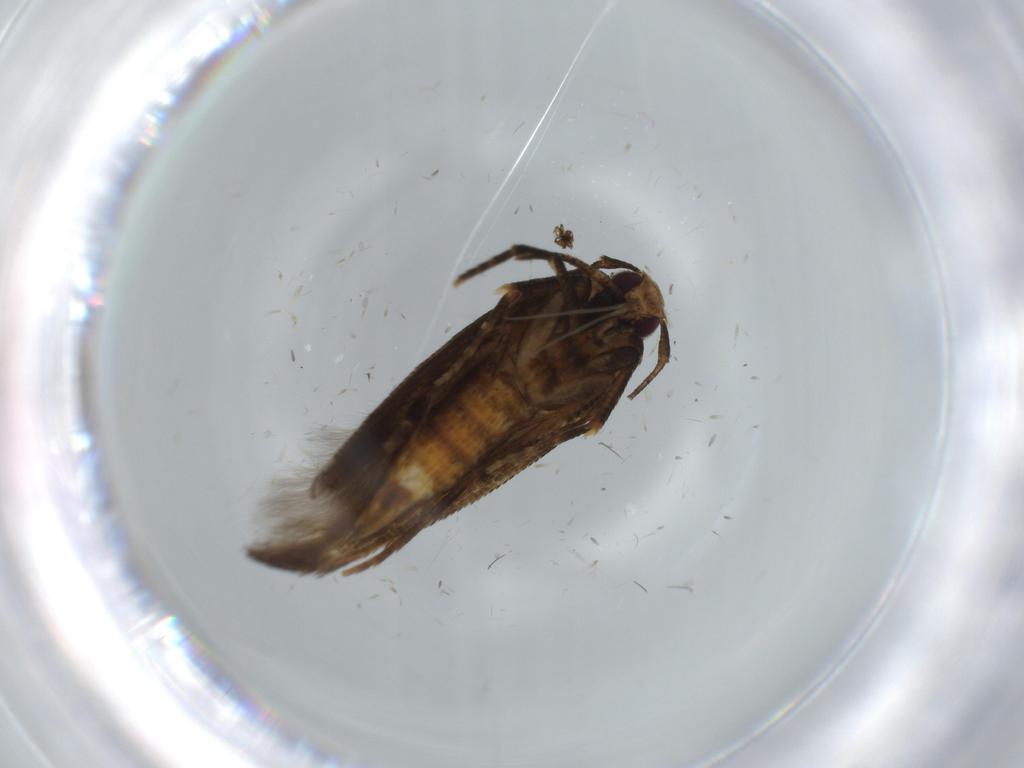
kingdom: Animalia
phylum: Arthropoda
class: Insecta
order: Lepidoptera
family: Cosmopterigidae
